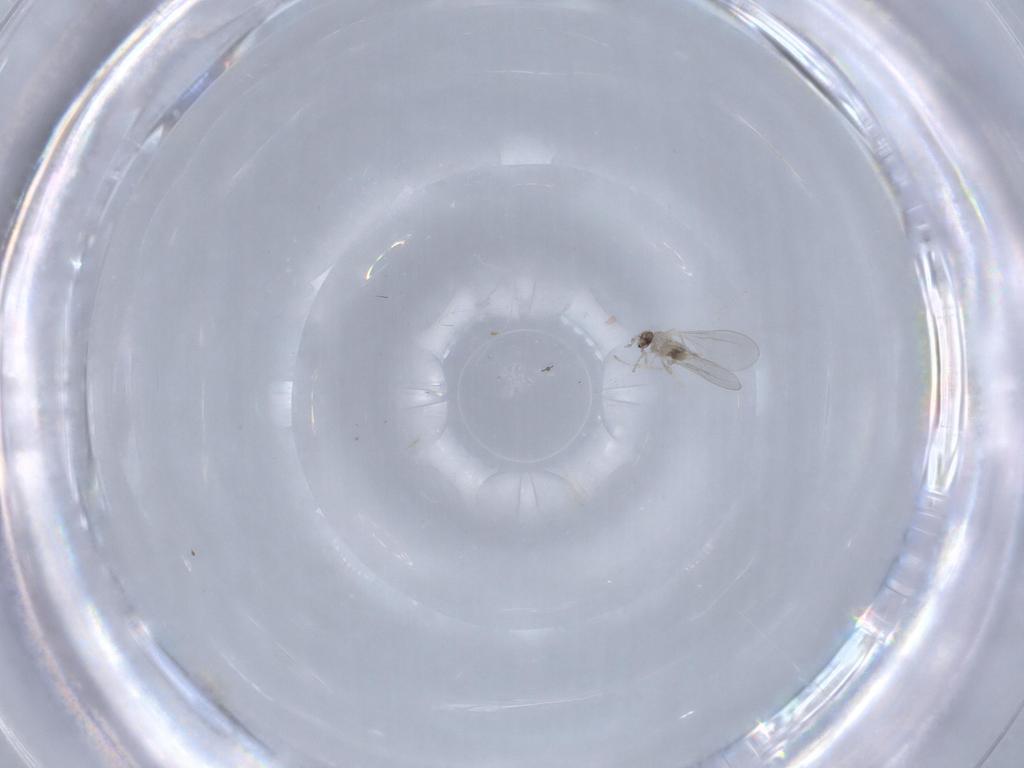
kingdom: Animalia
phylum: Arthropoda
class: Insecta
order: Diptera
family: Cecidomyiidae
